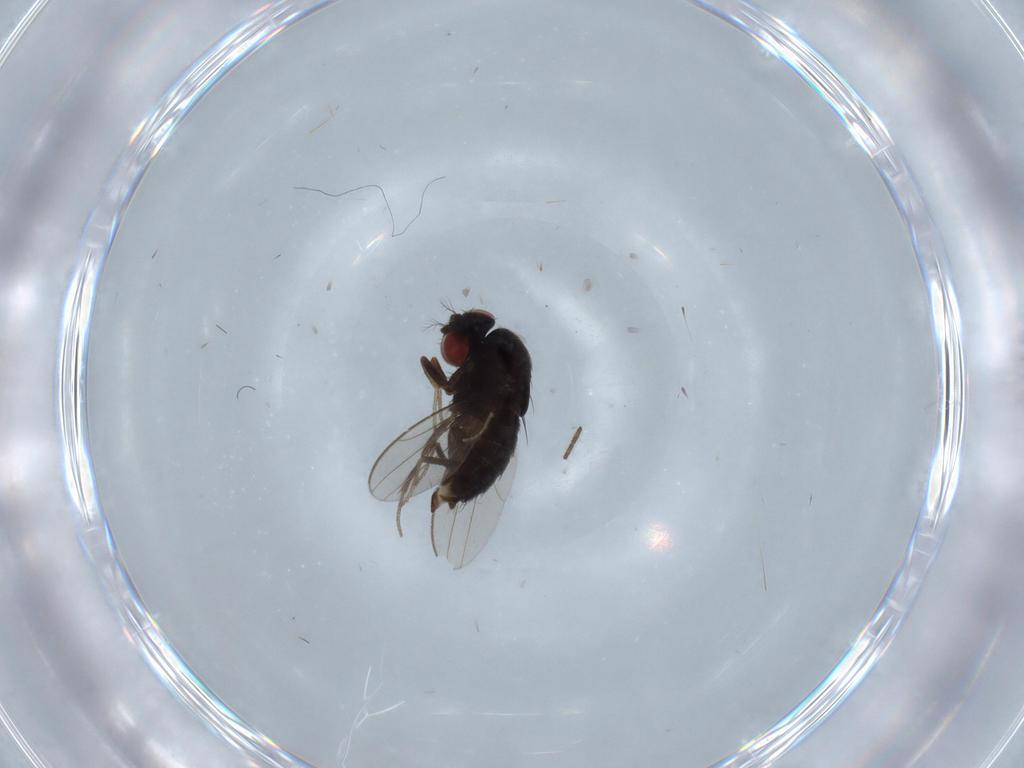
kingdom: Animalia
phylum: Arthropoda
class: Insecta
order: Diptera
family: Drosophilidae
